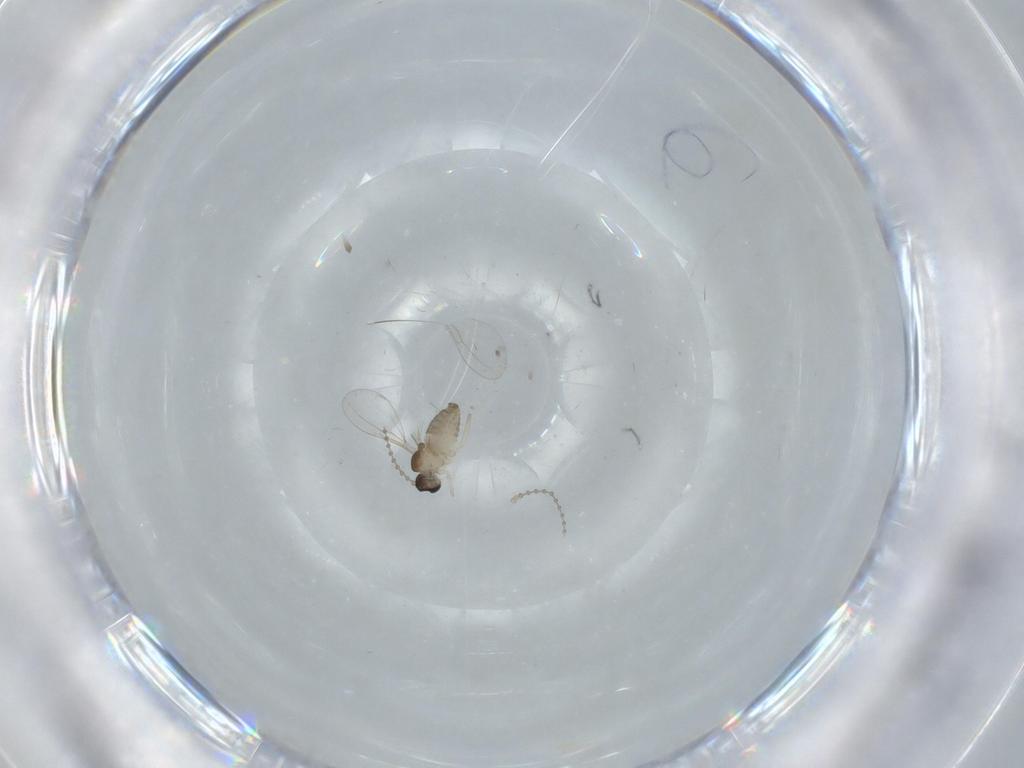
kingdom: Animalia
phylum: Arthropoda
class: Insecta
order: Diptera
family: Cecidomyiidae
